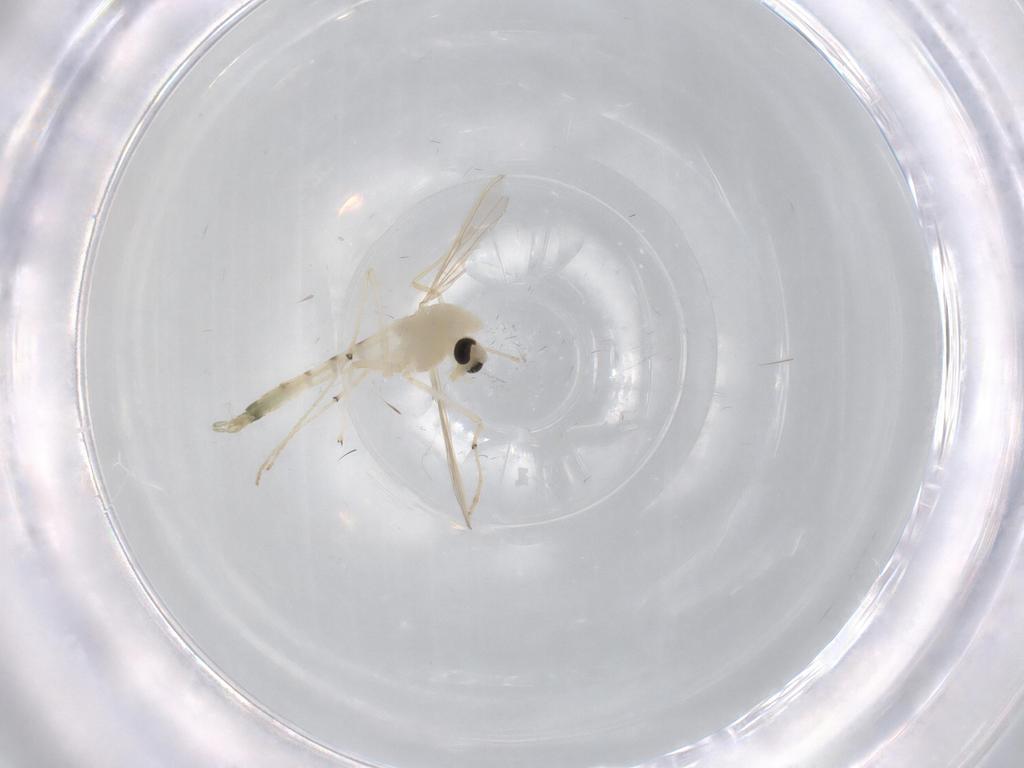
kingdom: Animalia
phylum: Arthropoda
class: Insecta
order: Diptera
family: Chironomidae
